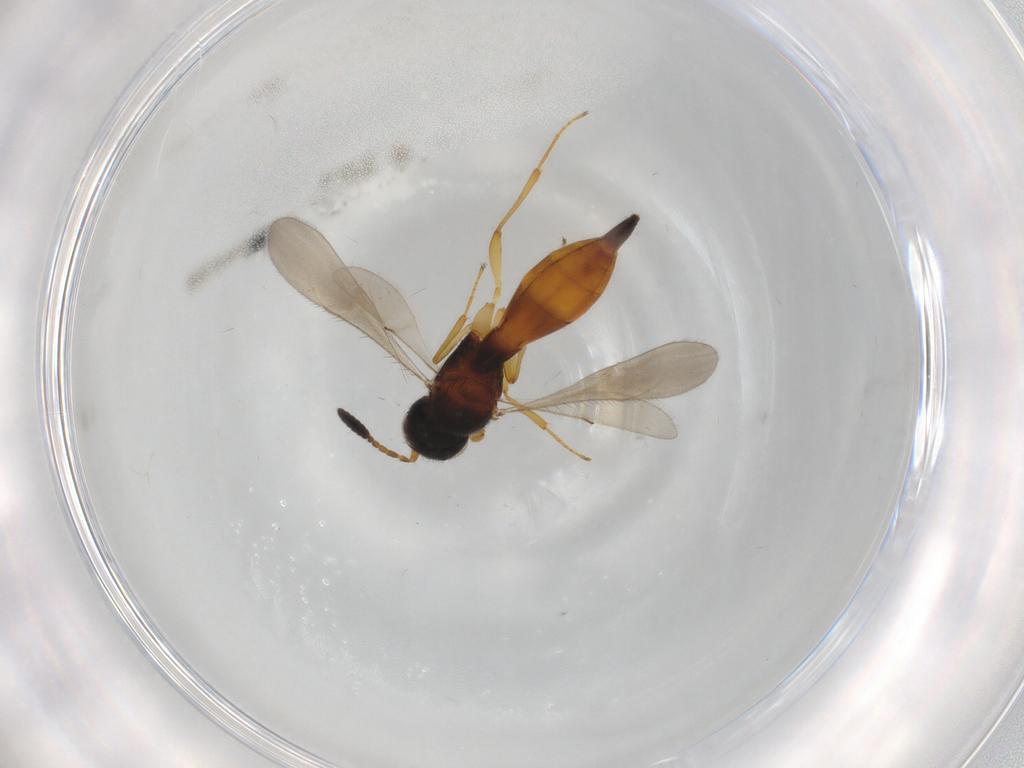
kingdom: Animalia
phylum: Arthropoda
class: Insecta
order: Hymenoptera
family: Scelionidae
